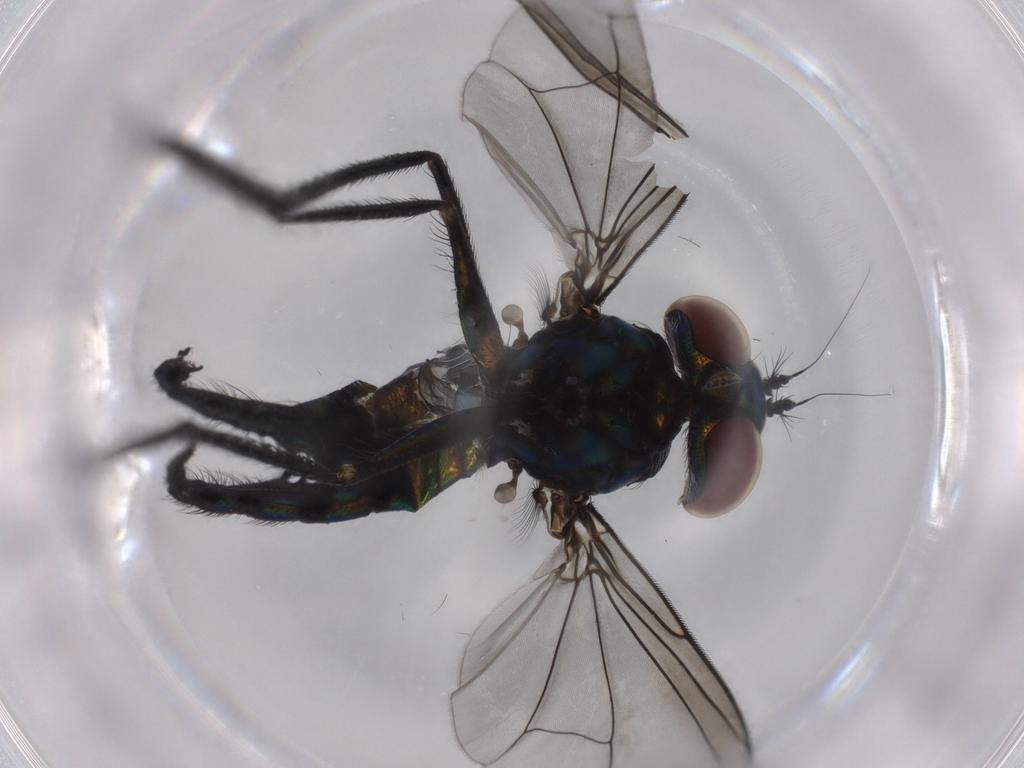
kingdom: Animalia
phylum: Arthropoda
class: Insecta
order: Diptera
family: Dolichopodidae
